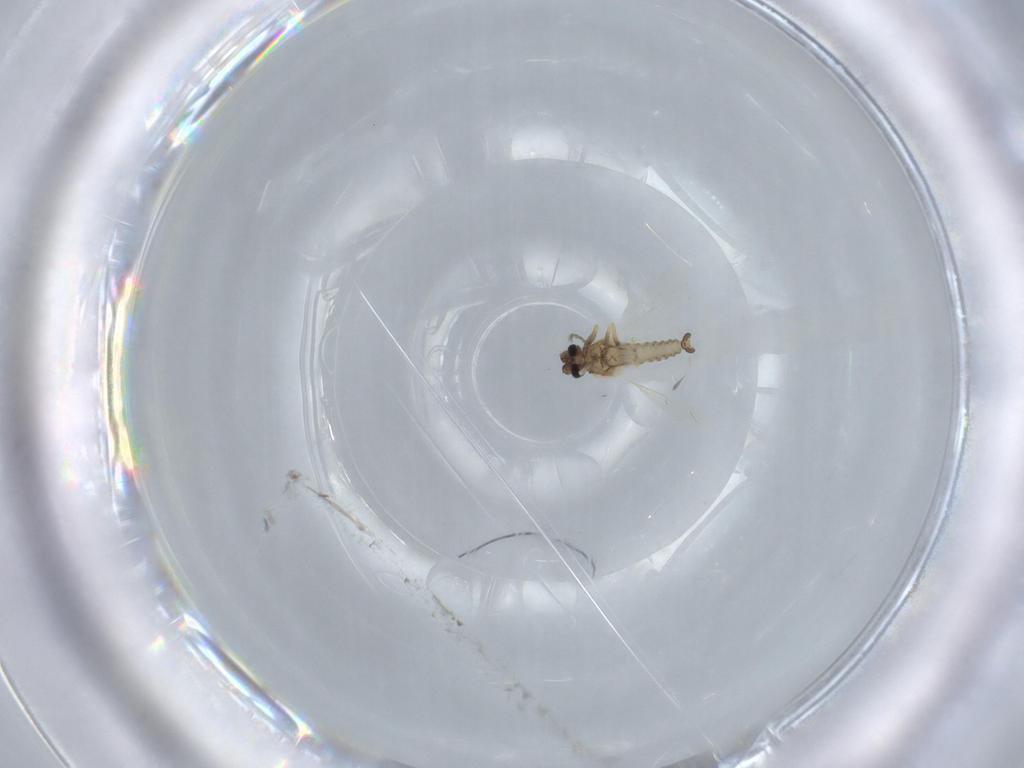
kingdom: Animalia
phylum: Arthropoda
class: Insecta
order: Diptera
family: Ceratopogonidae
